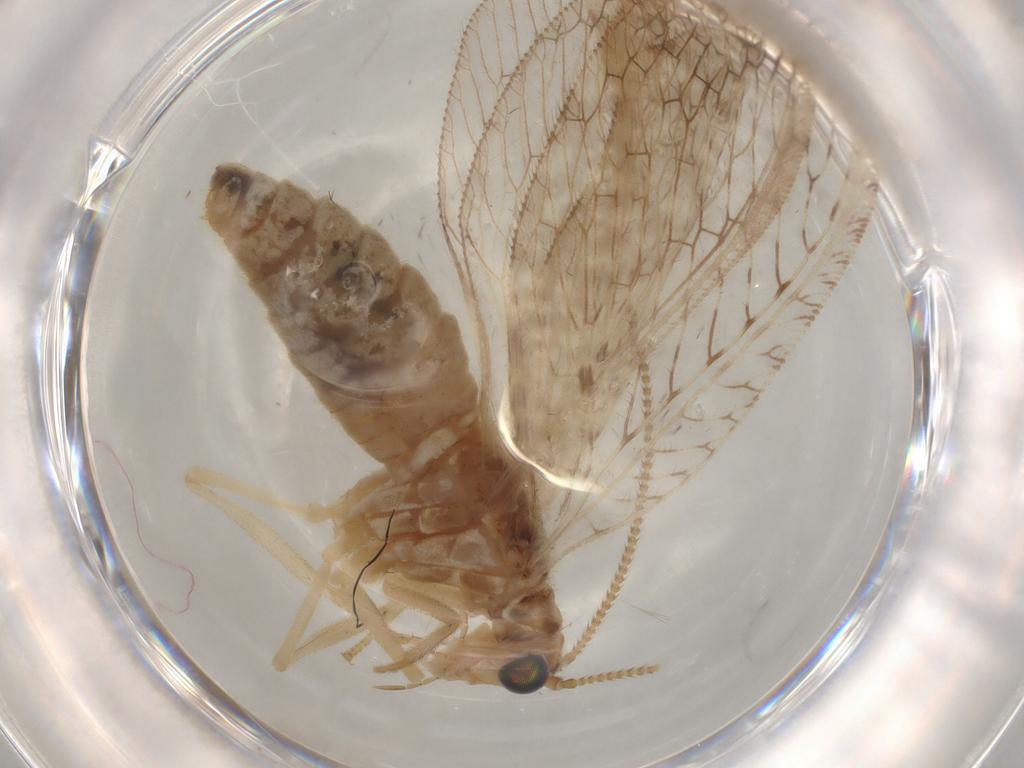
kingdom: Animalia
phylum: Arthropoda
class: Insecta
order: Neuroptera
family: Hemerobiidae
